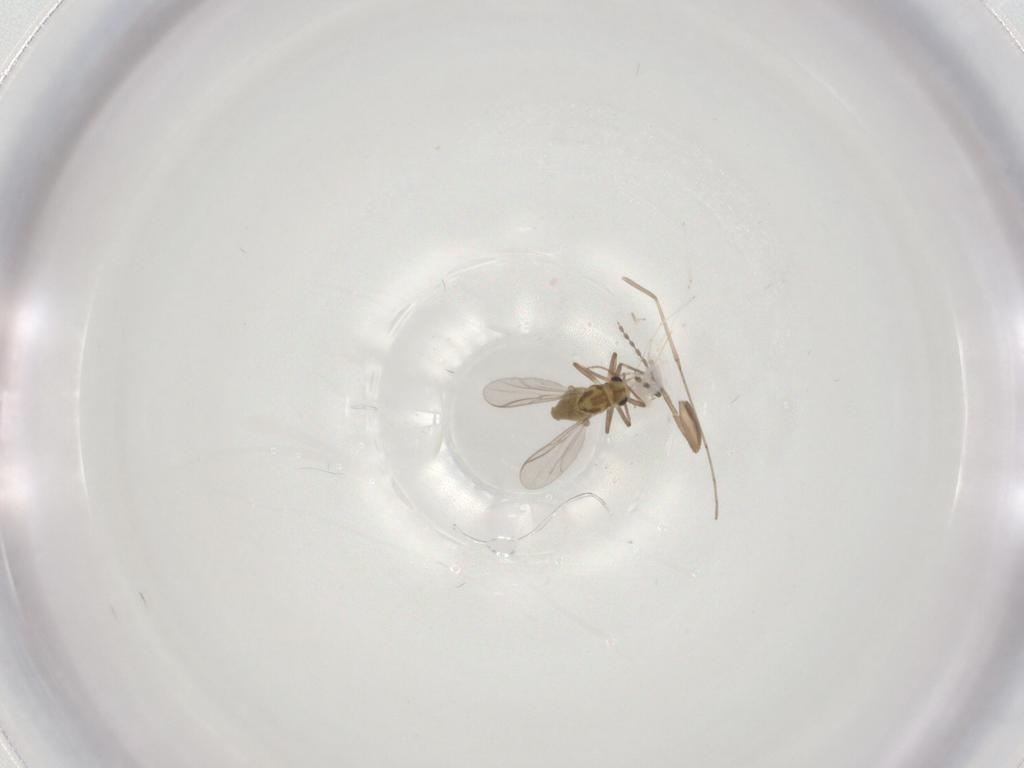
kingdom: Animalia
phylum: Arthropoda
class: Insecta
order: Diptera
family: Chironomidae
